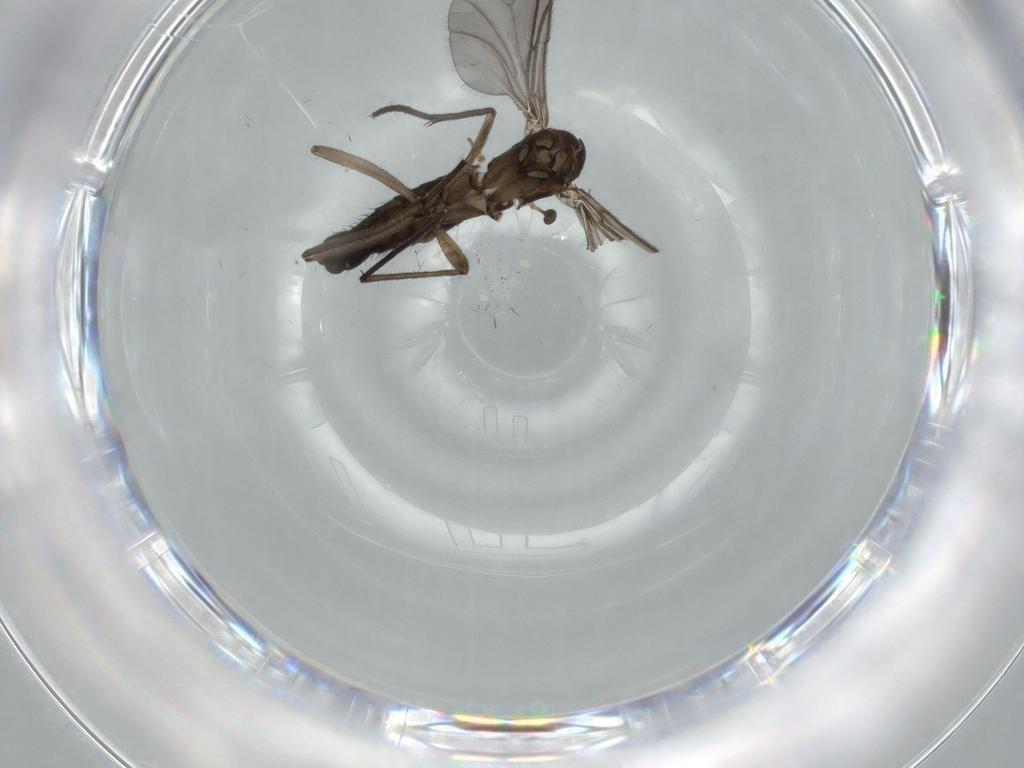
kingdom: Animalia
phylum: Arthropoda
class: Insecta
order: Diptera
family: Sciaridae
